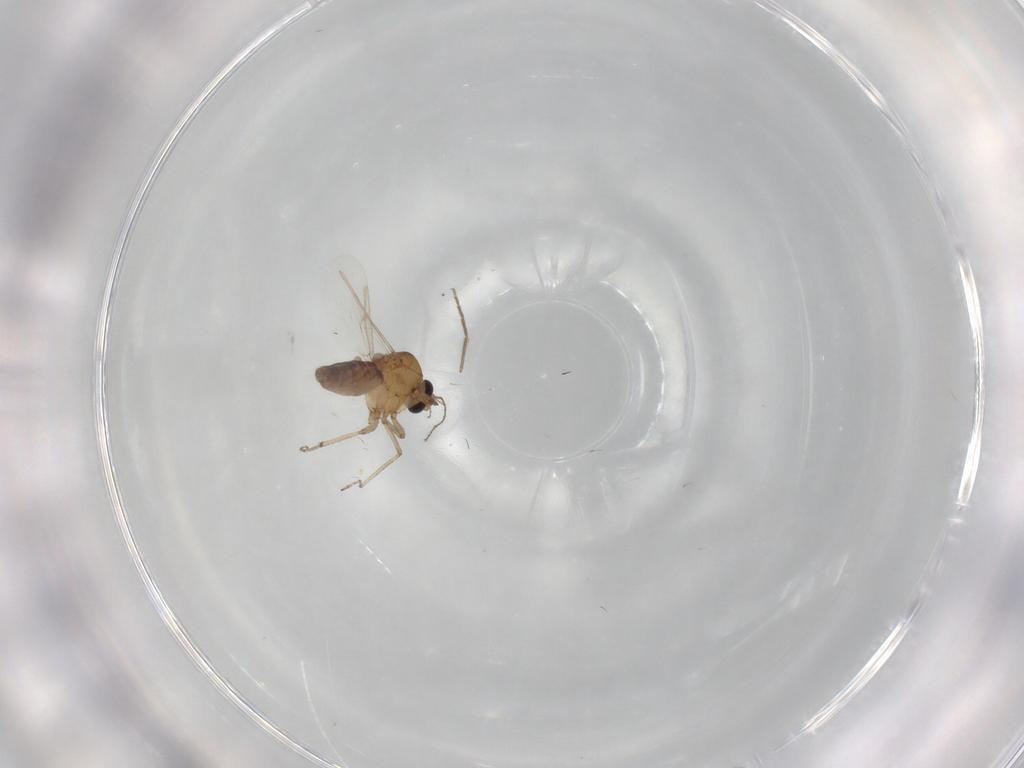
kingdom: Animalia
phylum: Arthropoda
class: Insecta
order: Diptera
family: Ceratopogonidae
